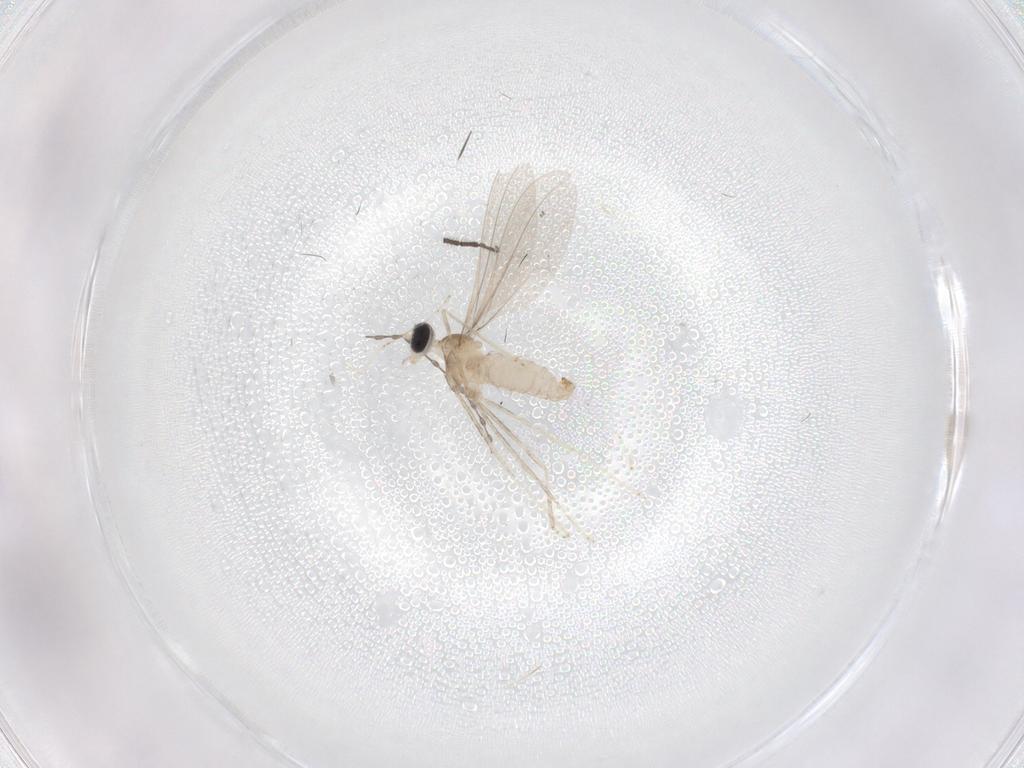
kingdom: Animalia
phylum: Arthropoda
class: Insecta
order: Diptera
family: Cecidomyiidae
